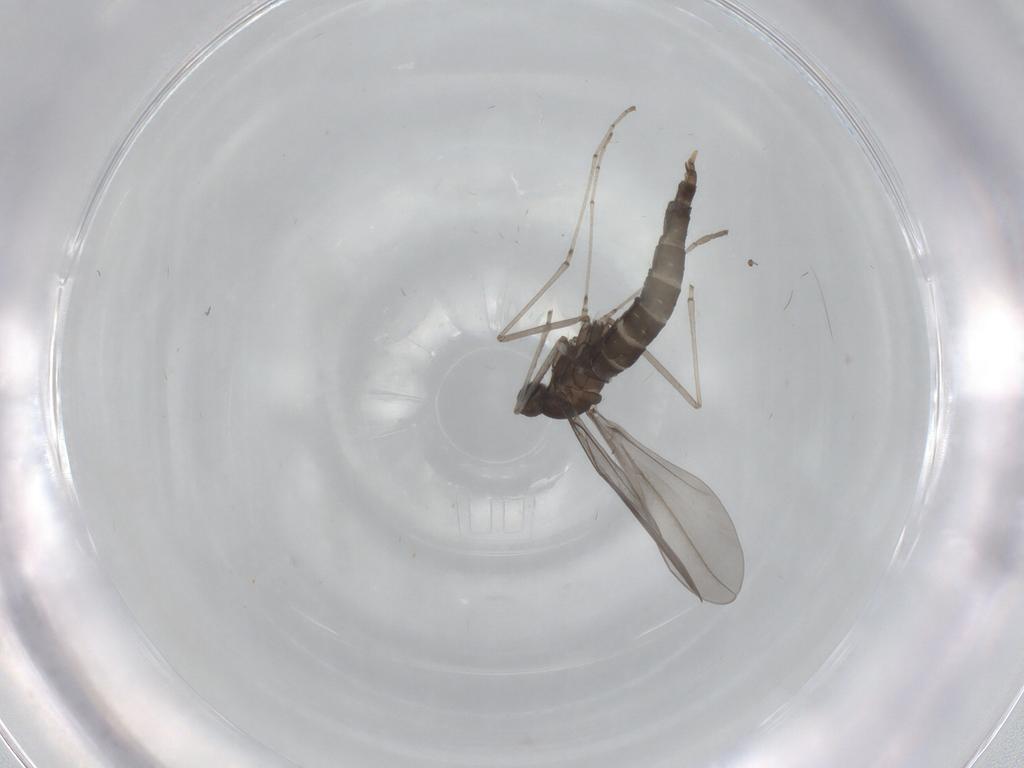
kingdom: Animalia
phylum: Arthropoda
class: Insecta
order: Diptera
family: Cecidomyiidae
